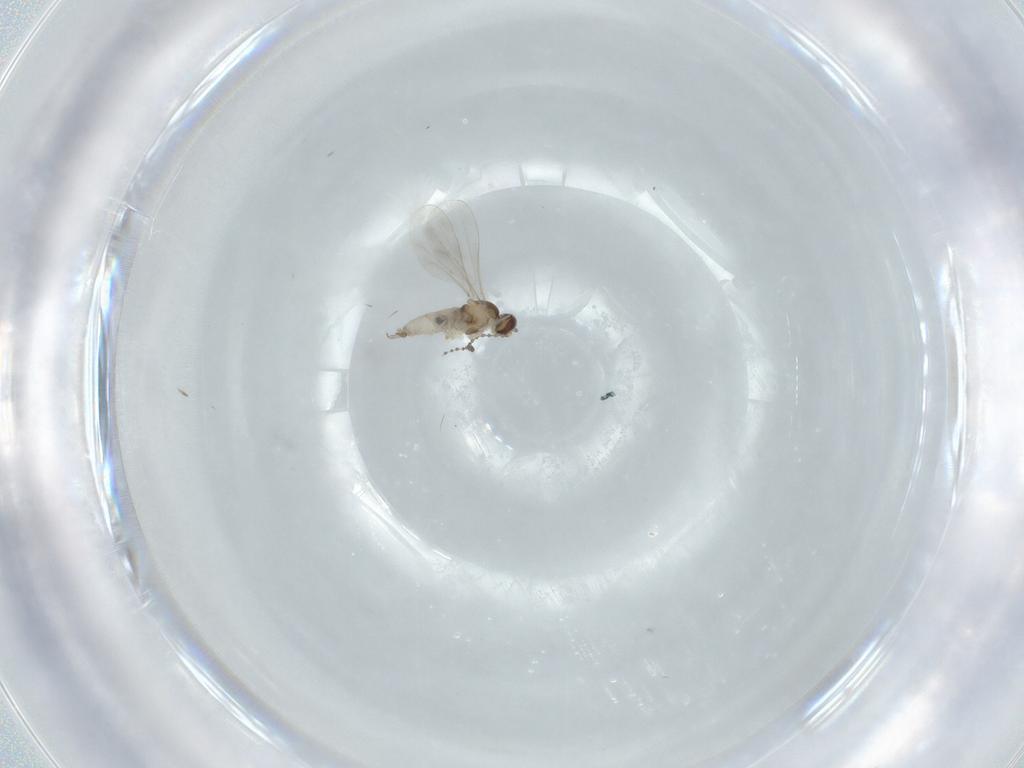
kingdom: Animalia
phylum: Arthropoda
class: Insecta
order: Diptera
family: Cecidomyiidae
